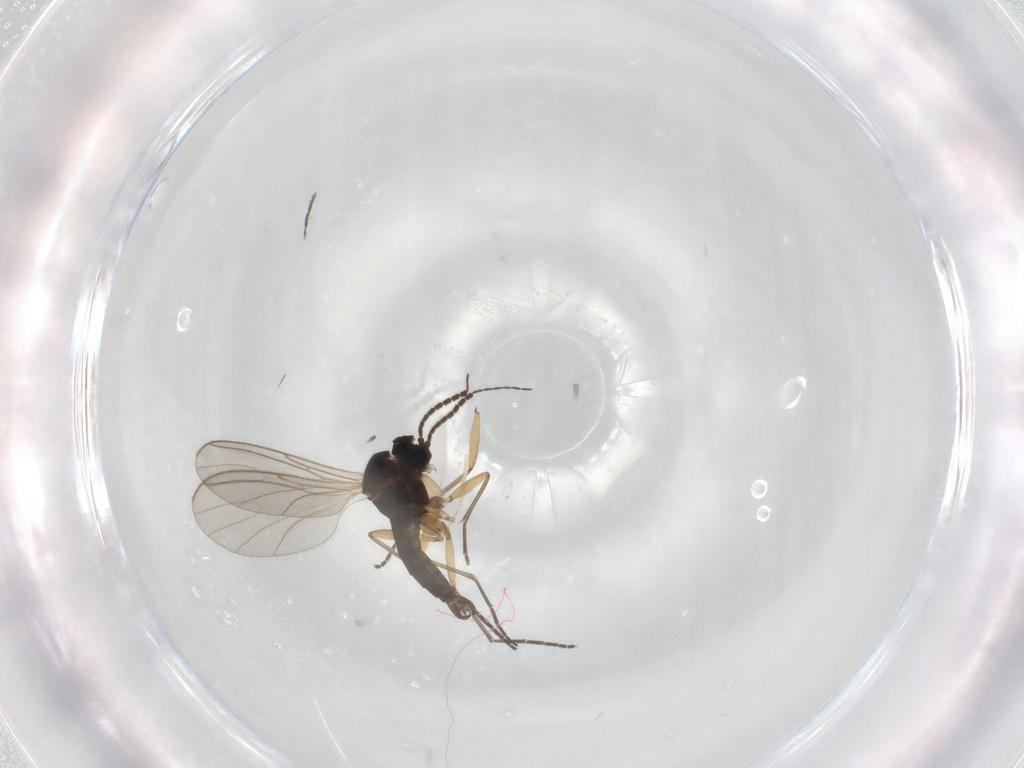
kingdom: Animalia
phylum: Arthropoda
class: Insecta
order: Diptera
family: Sciaridae
